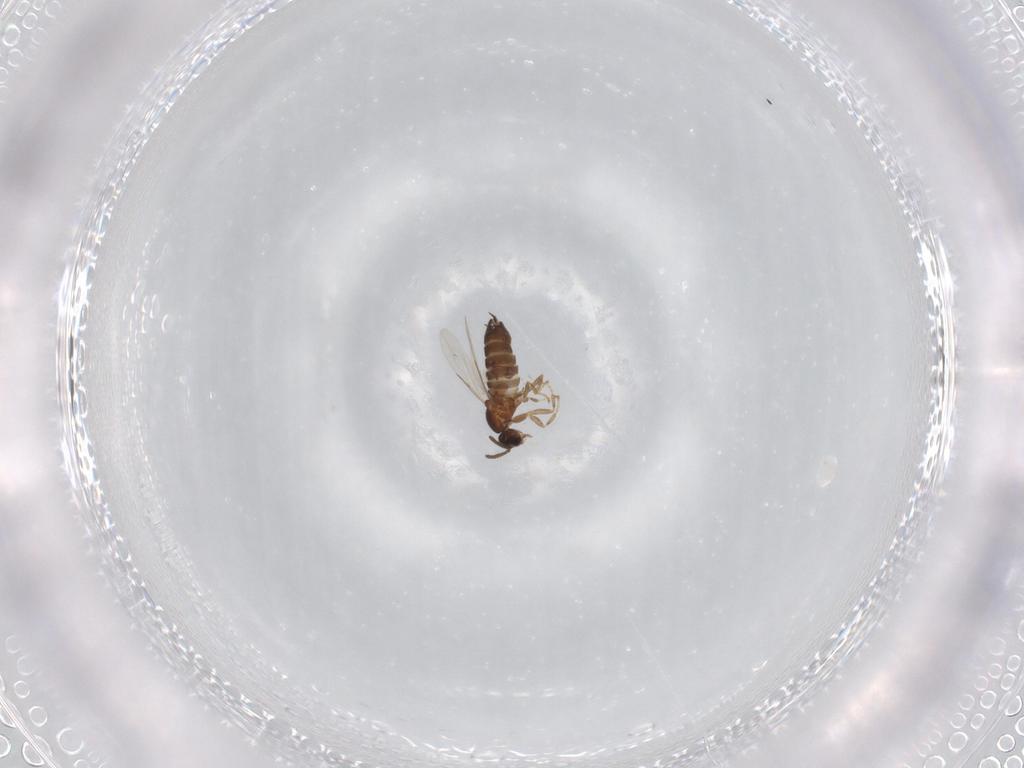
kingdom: Animalia
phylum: Arthropoda
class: Insecta
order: Diptera
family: Scatopsidae
